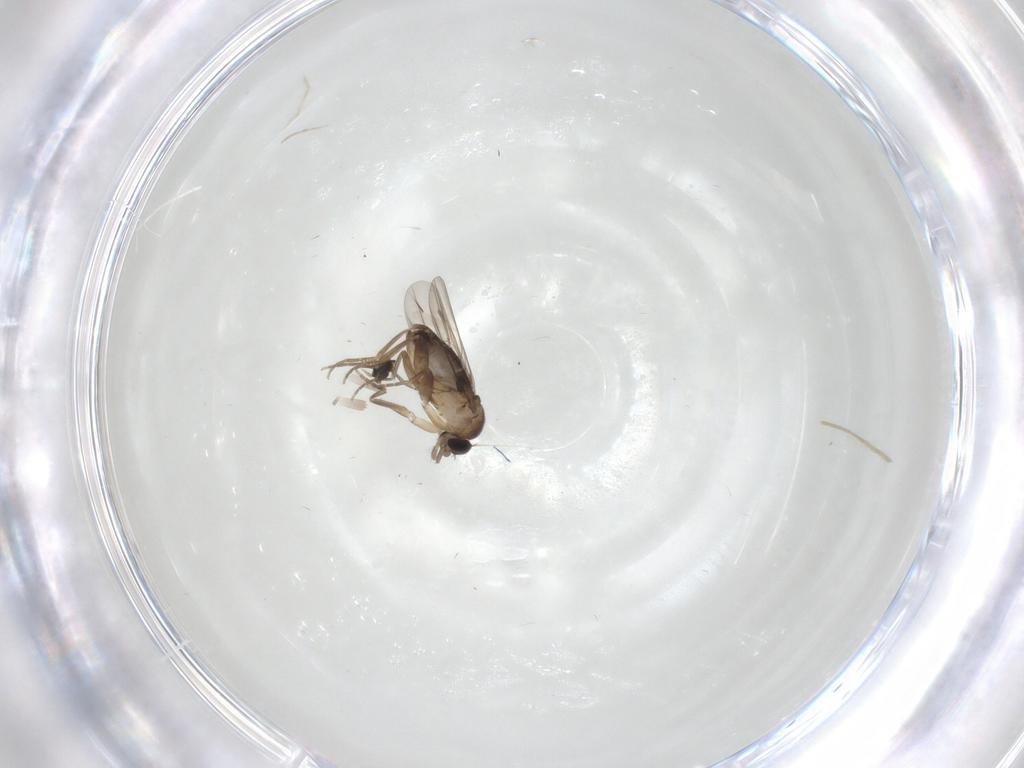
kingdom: Animalia
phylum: Arthropoda
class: Insecta
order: Diptera
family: Phoridae
